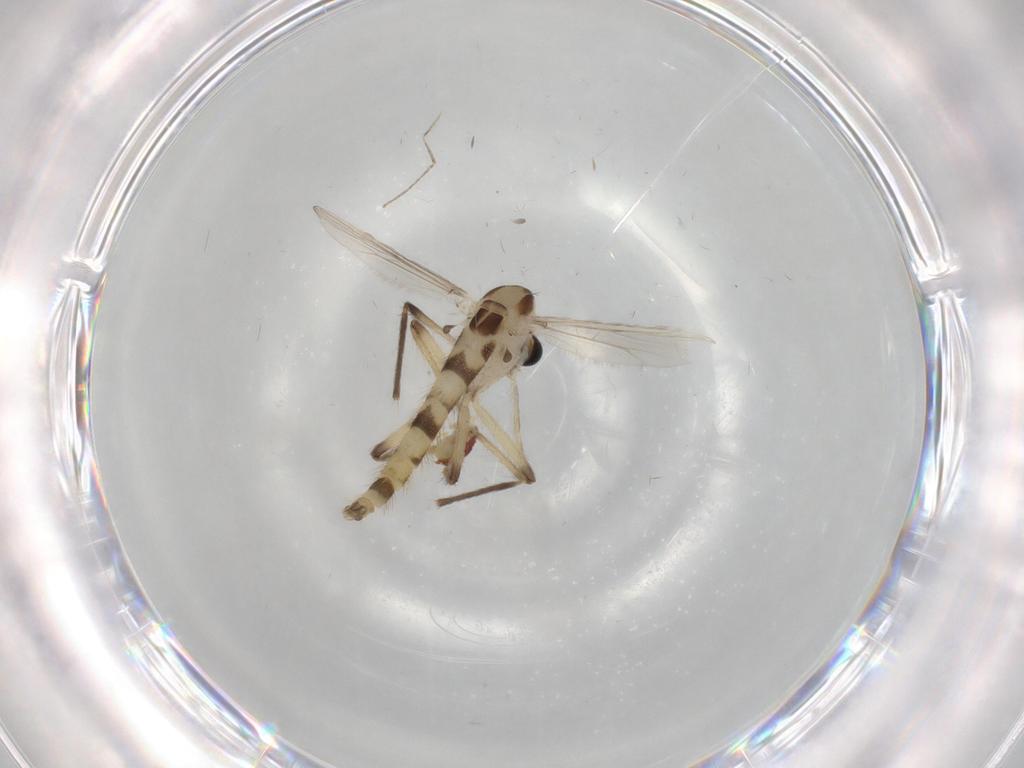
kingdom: Animalia
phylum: Arthropoda
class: Insecta
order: Diptera
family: Chironomidae
